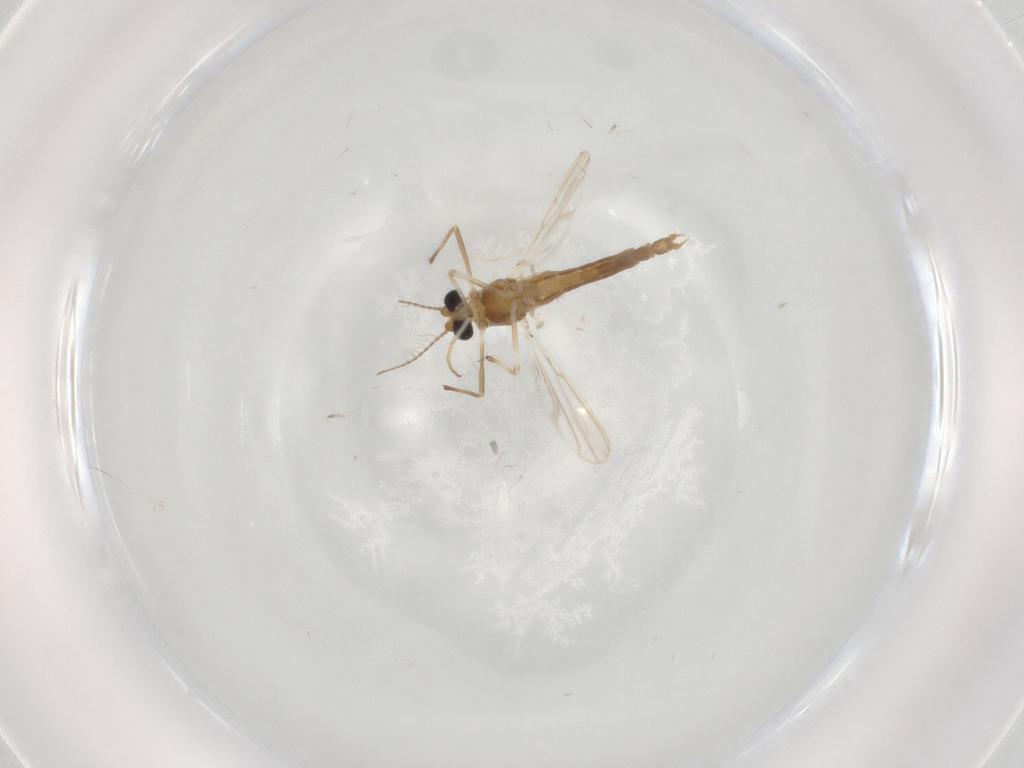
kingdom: Animalia
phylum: Arthropoda
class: Insecta
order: Diptera
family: Chironomidae
